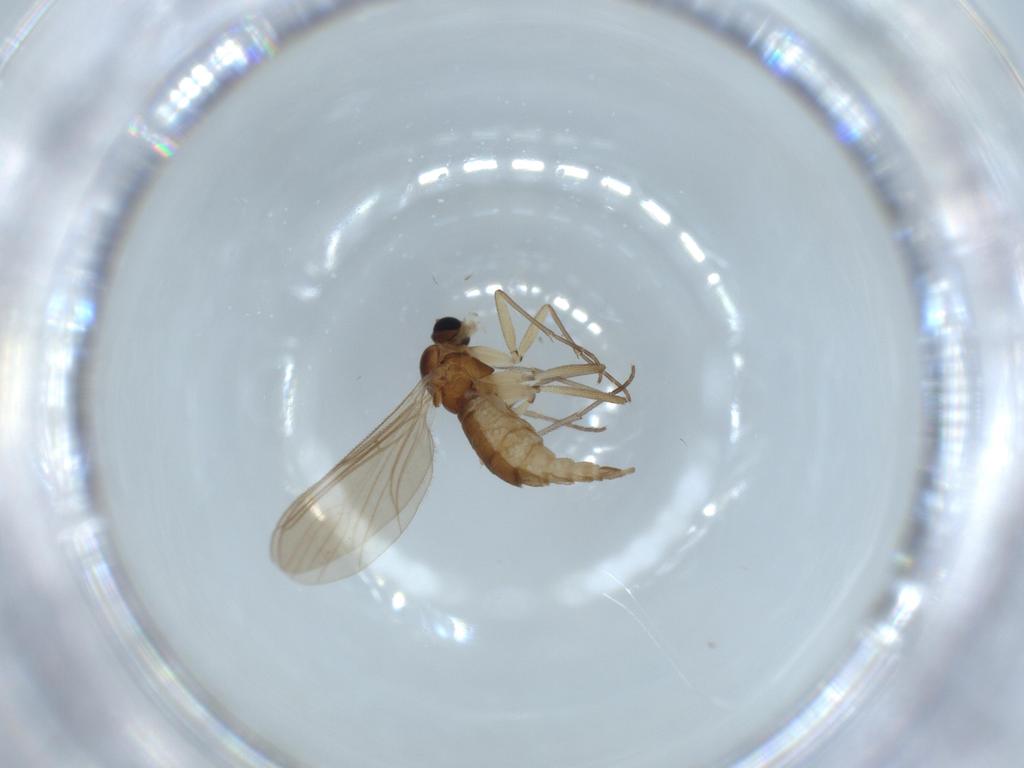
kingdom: Animalia
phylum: Arthropoda
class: Insecta
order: Diptera
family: Sciaridae
